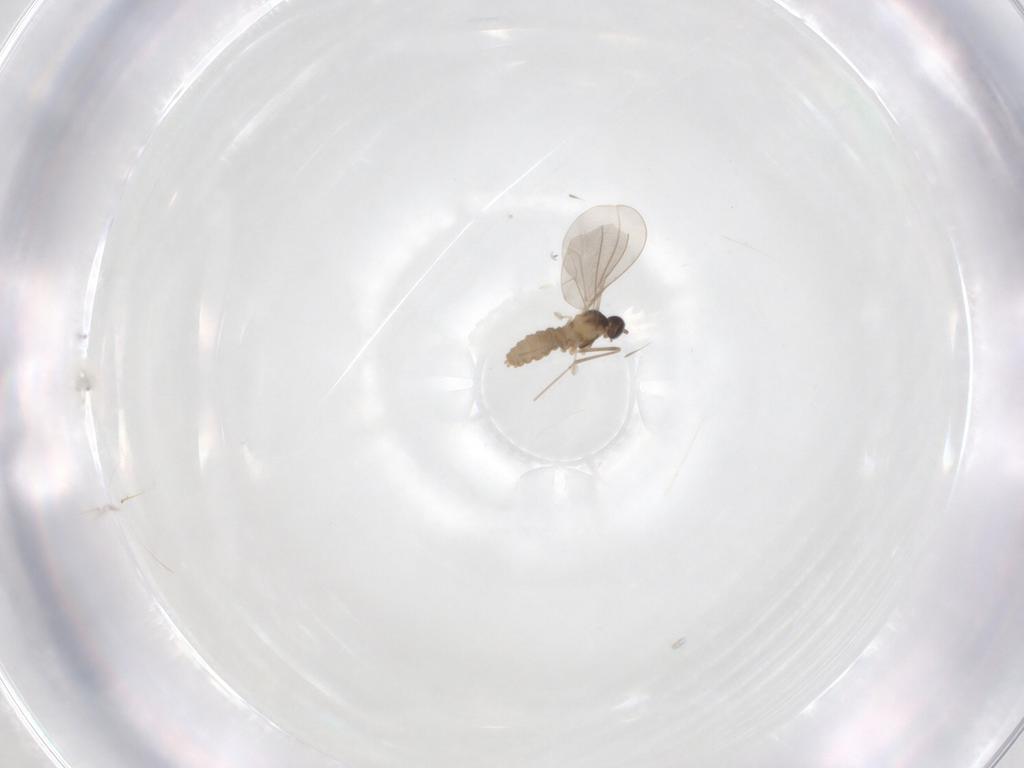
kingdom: Animalia
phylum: Arthropoda
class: Insecta
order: Diptera
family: Cecidomyiidae
